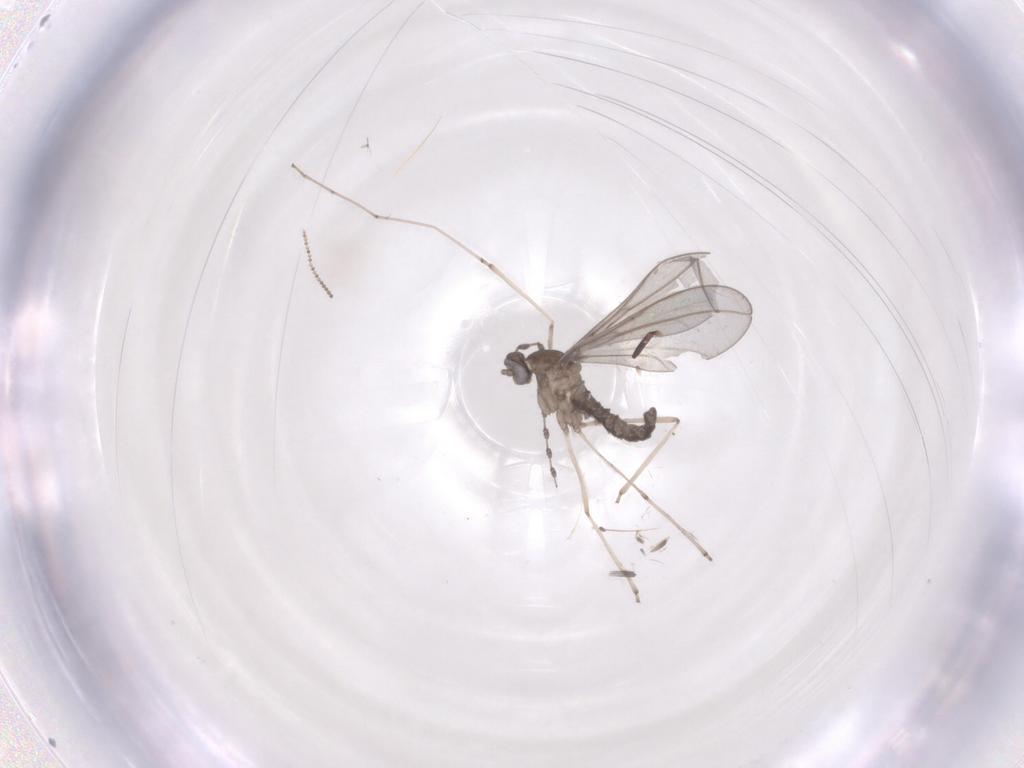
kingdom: Animalia
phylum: Arthropoda
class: Insecta
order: Diptera
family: Cecidomyiidae
